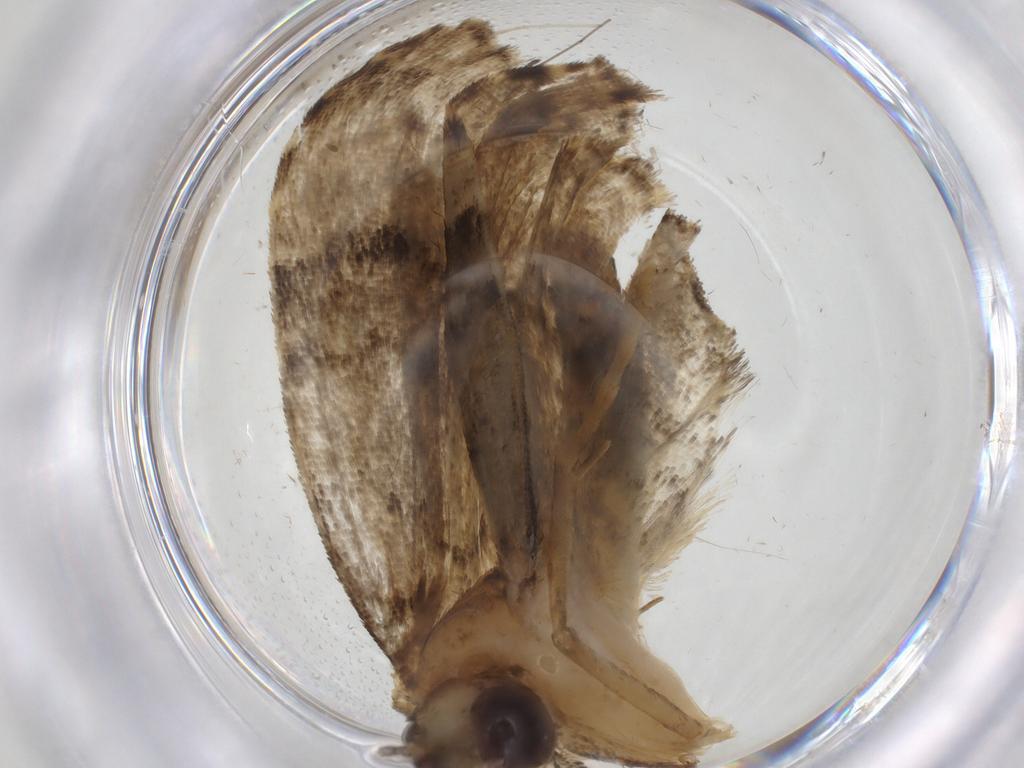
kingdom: Animalia
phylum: Arthropoda
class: Insecta
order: Lepidoptera
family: Erebidae
